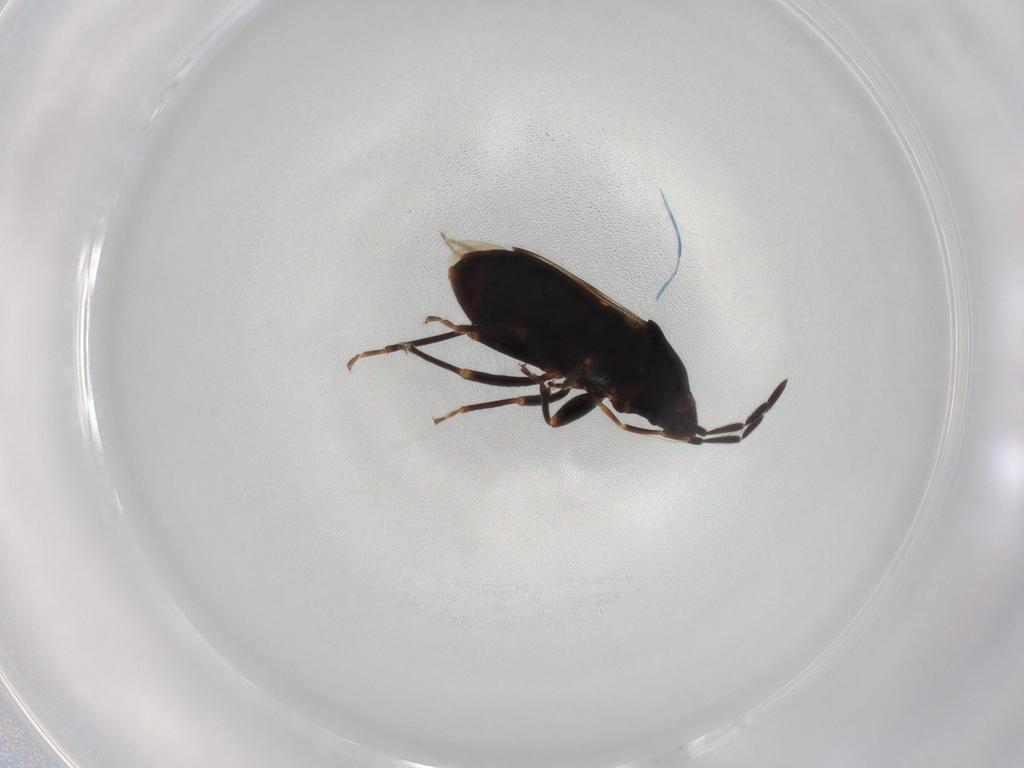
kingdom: Animalia
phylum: Arthropoda
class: Insecta
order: Hemiptera
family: Rhyparochromidae
